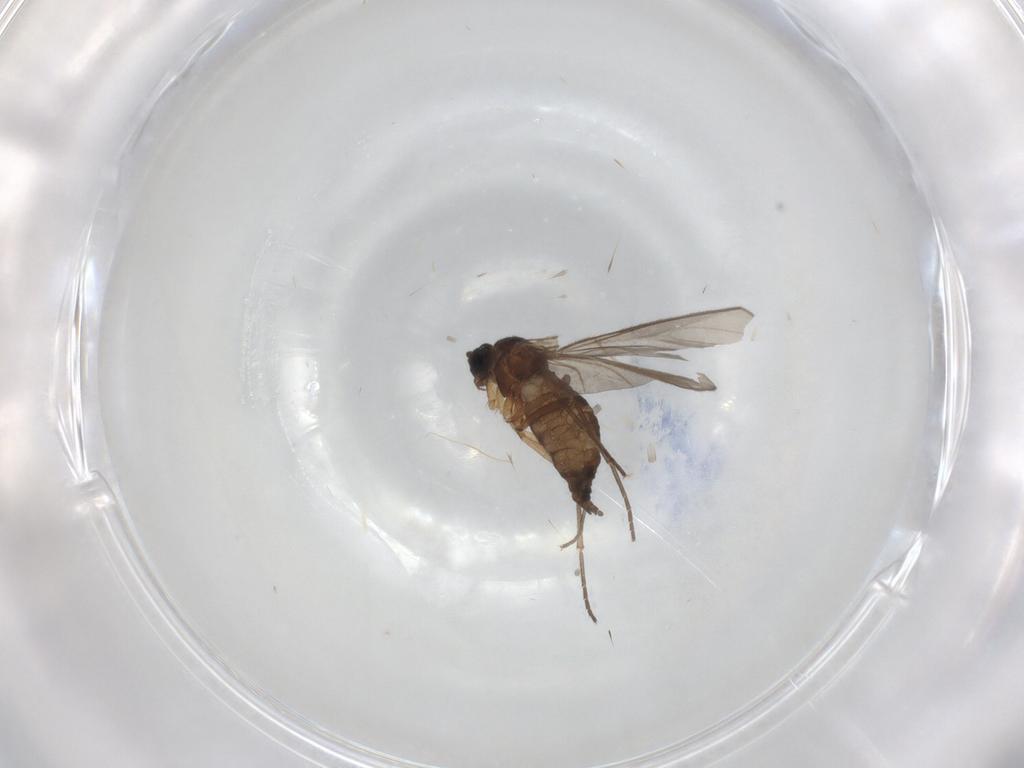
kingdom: Animalia
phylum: Arthropoda
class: Insecta
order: Diptera
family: Sciaridae
